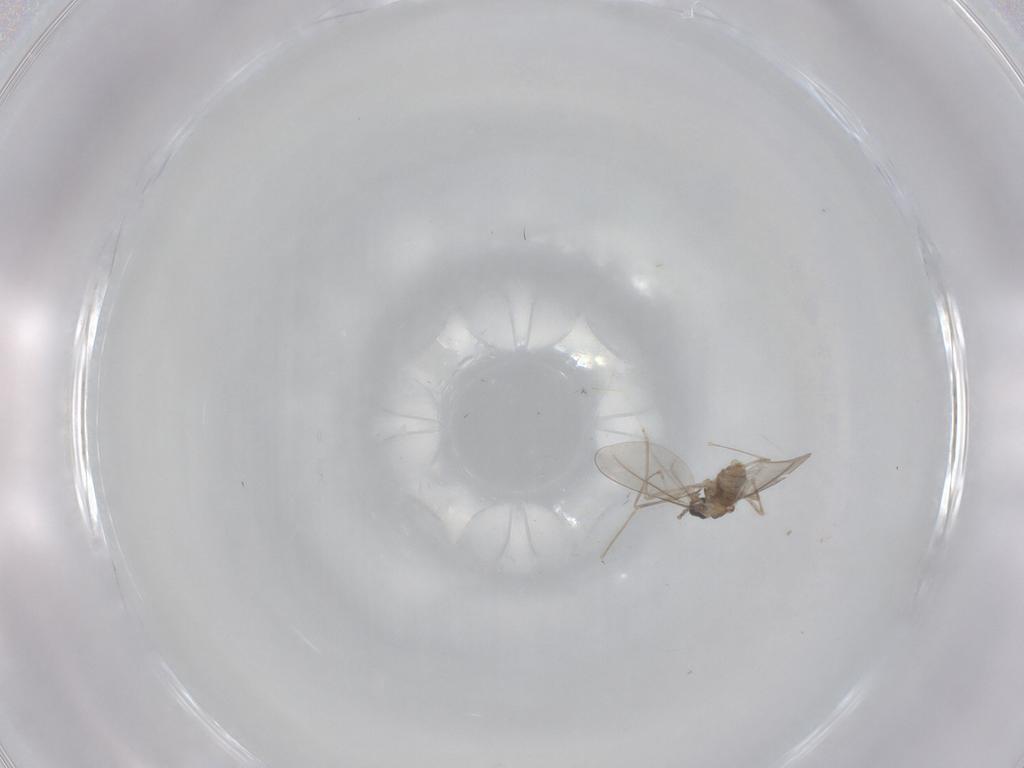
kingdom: Animalia
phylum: Arthropoda
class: Insecta
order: Diptera
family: Cecidomyiidae
